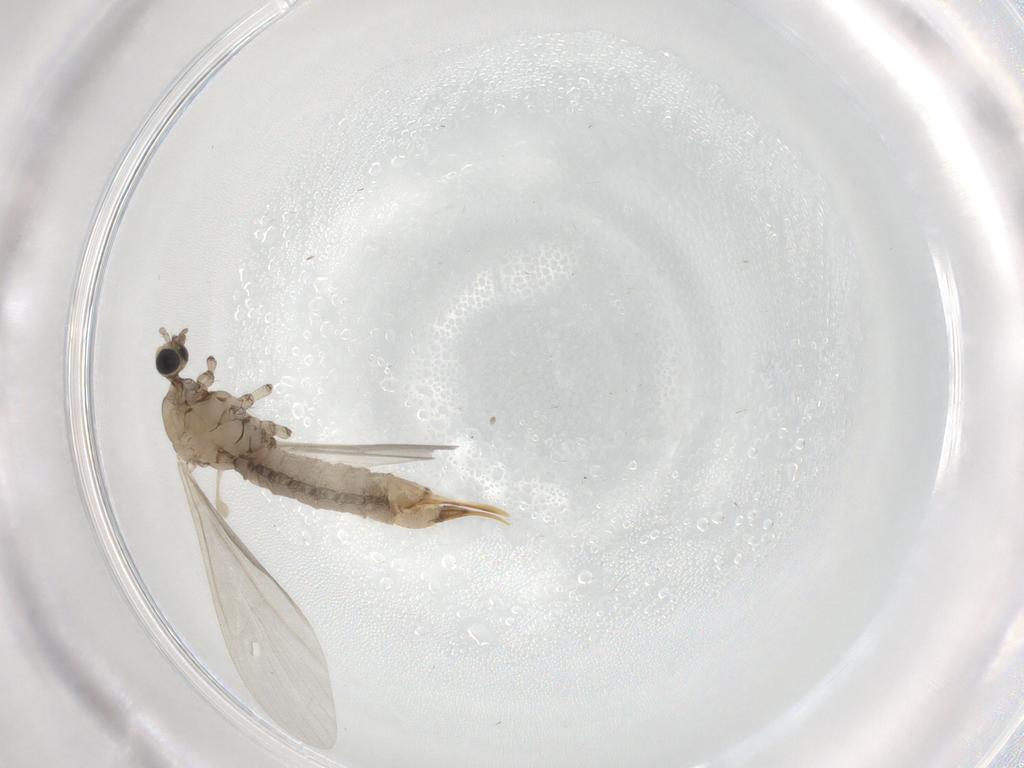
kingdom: Animalia
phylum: Arthropoda
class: Insecta
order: Diptera
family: Limoniidae
